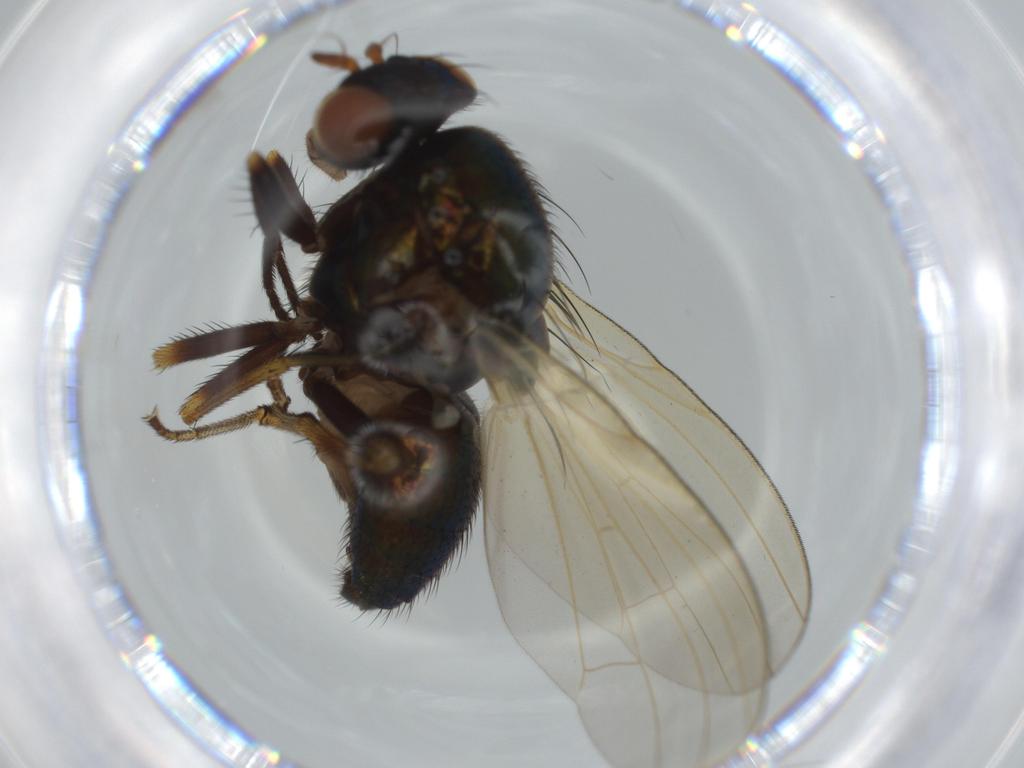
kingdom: Animalia
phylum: Arthropoda
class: Insecta
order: Diptera
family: Lauxaniidae
